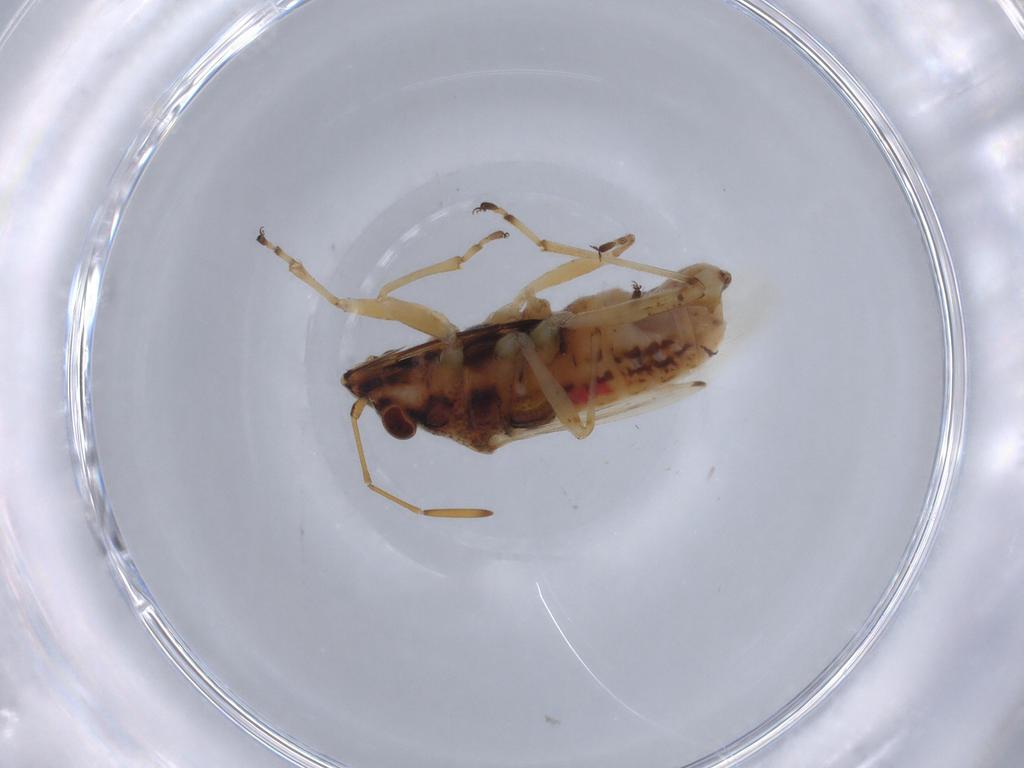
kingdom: Animalia
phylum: Arthropoda
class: Insecta
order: Hemiptera
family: Lygaeidae
